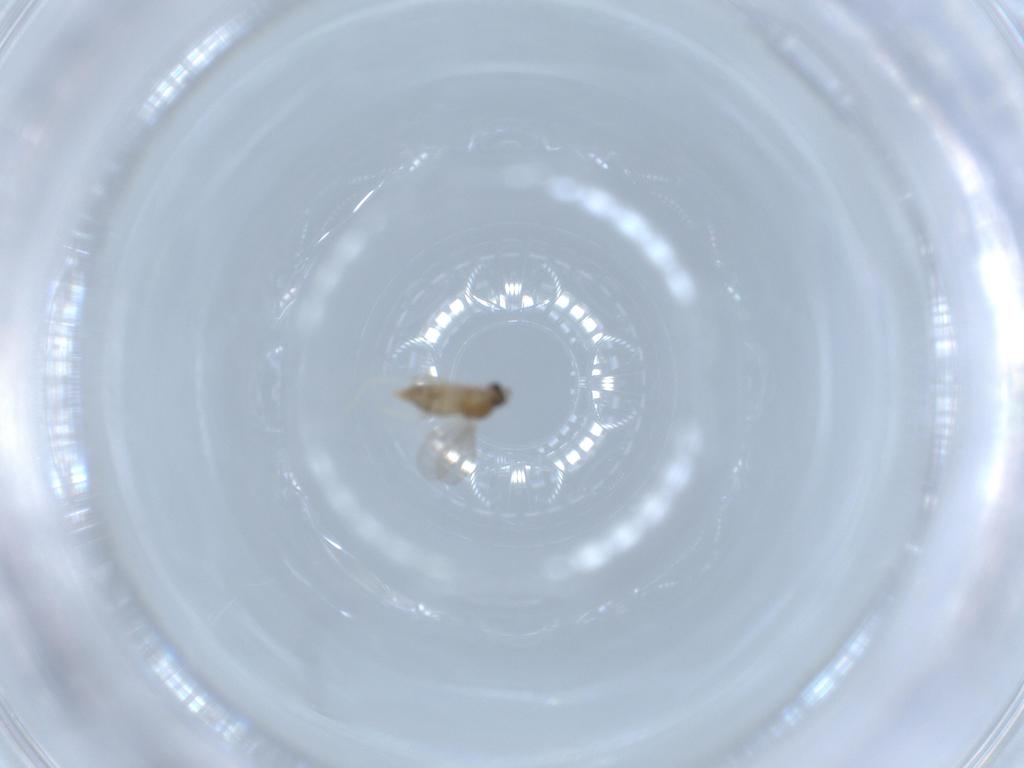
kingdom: Animalia
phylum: Arthropoda
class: Insecta
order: Diptera
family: Cecidomyiidae
